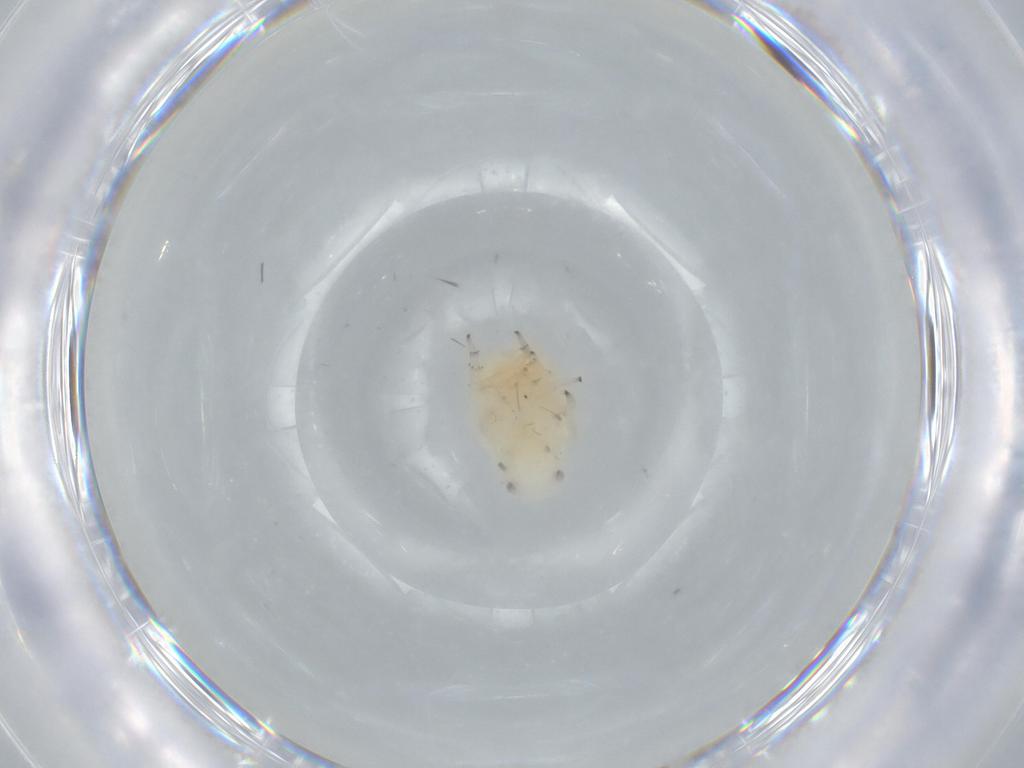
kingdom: Animalia
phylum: Arthropoda
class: Insecta
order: Hemiptera
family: Flatidae
